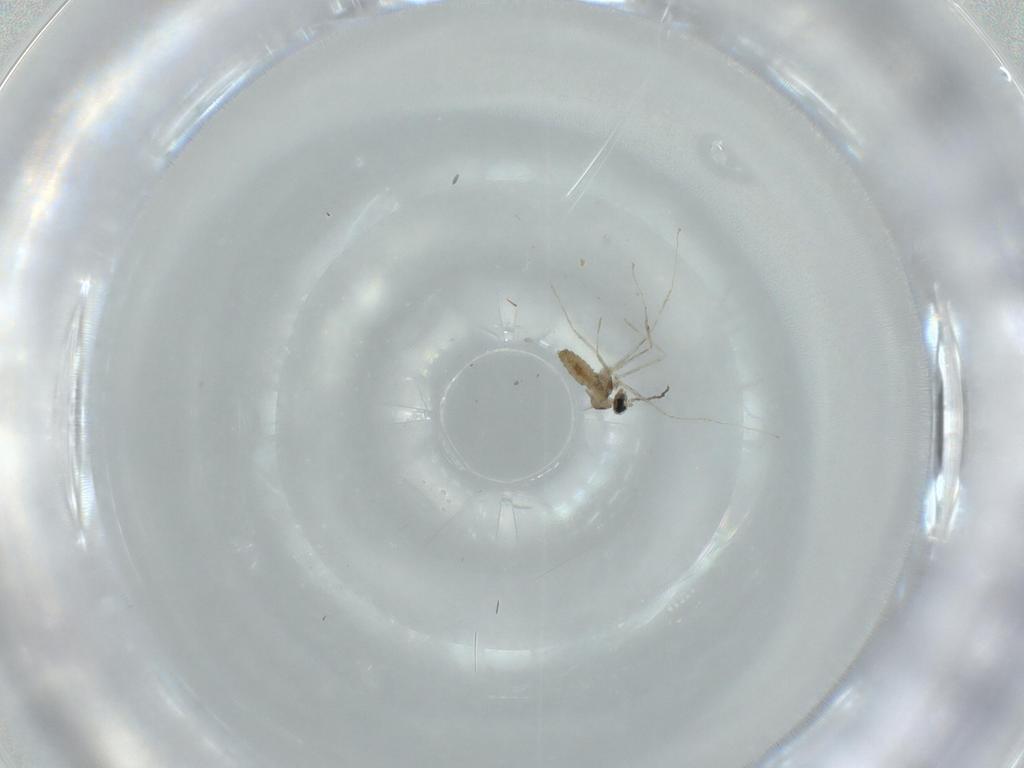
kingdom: Animalia
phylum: Arthropoda
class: Insecta
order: Diptera
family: Cecidomyiidae
